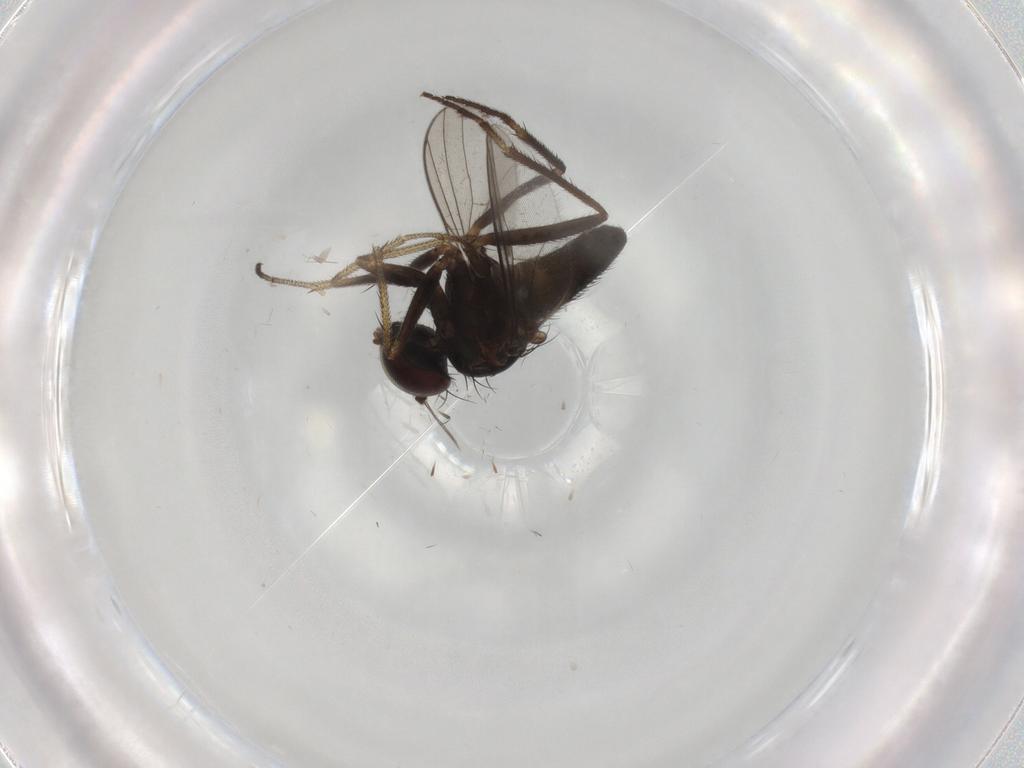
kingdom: Animalia
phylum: Arthropoda
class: Insecta
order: Diptera
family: Dolichopodidae
